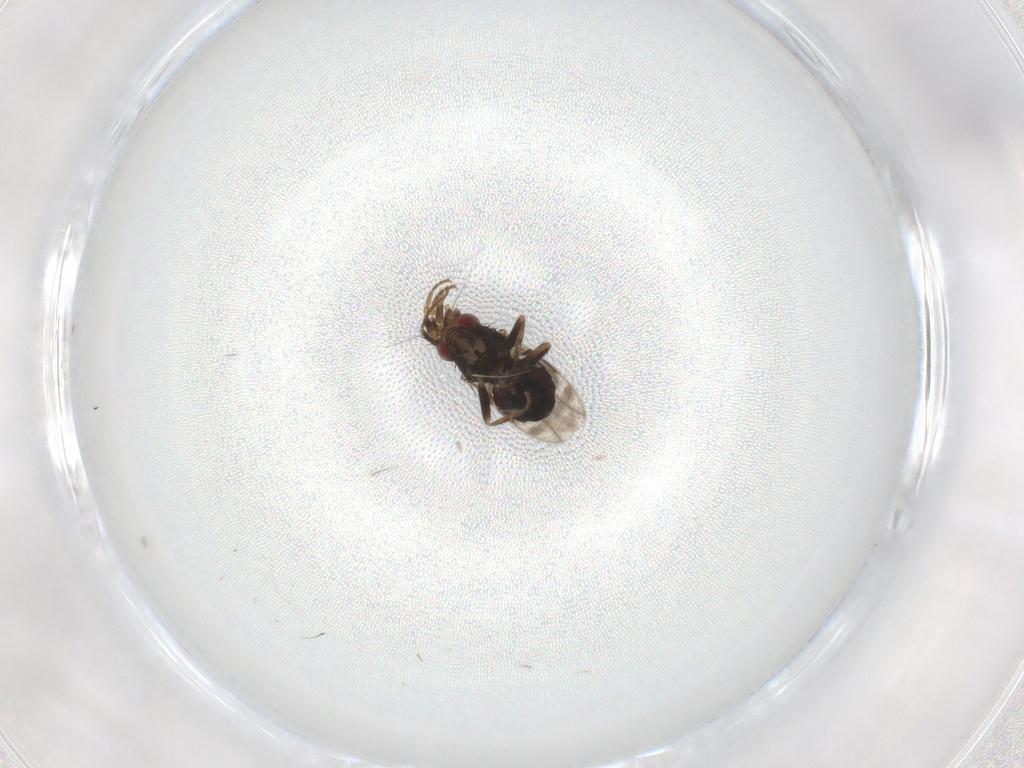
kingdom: Animalia
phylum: Arthropoda
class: Insecta
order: Diptera
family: Sphaeroceridae
